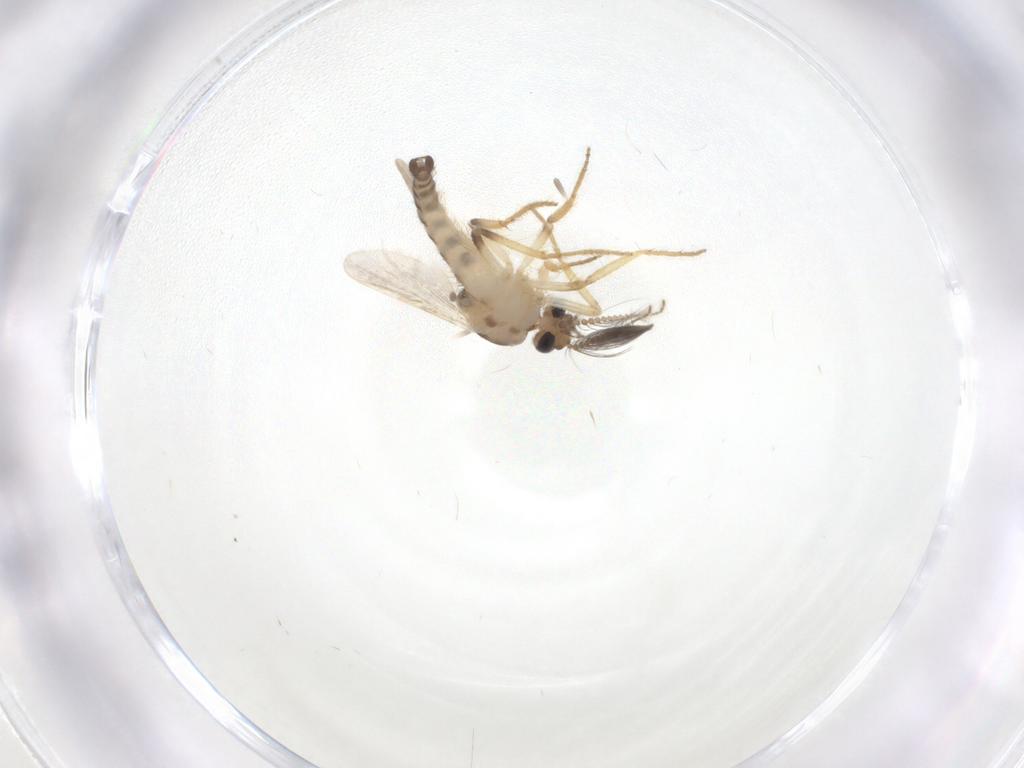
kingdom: Animalia
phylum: Arthropoda
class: Insecta
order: Diptera
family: Ceratopogonidae
